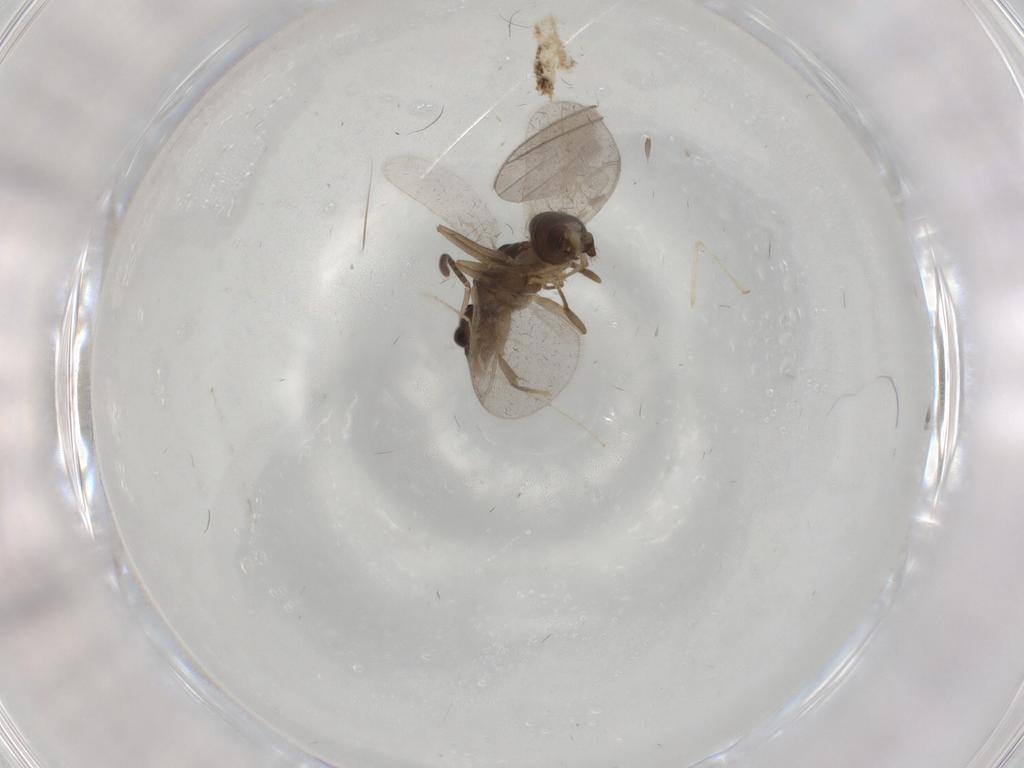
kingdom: Animalia
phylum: Arthropoda
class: Insecta
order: Hymenoptera
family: Formicidae
